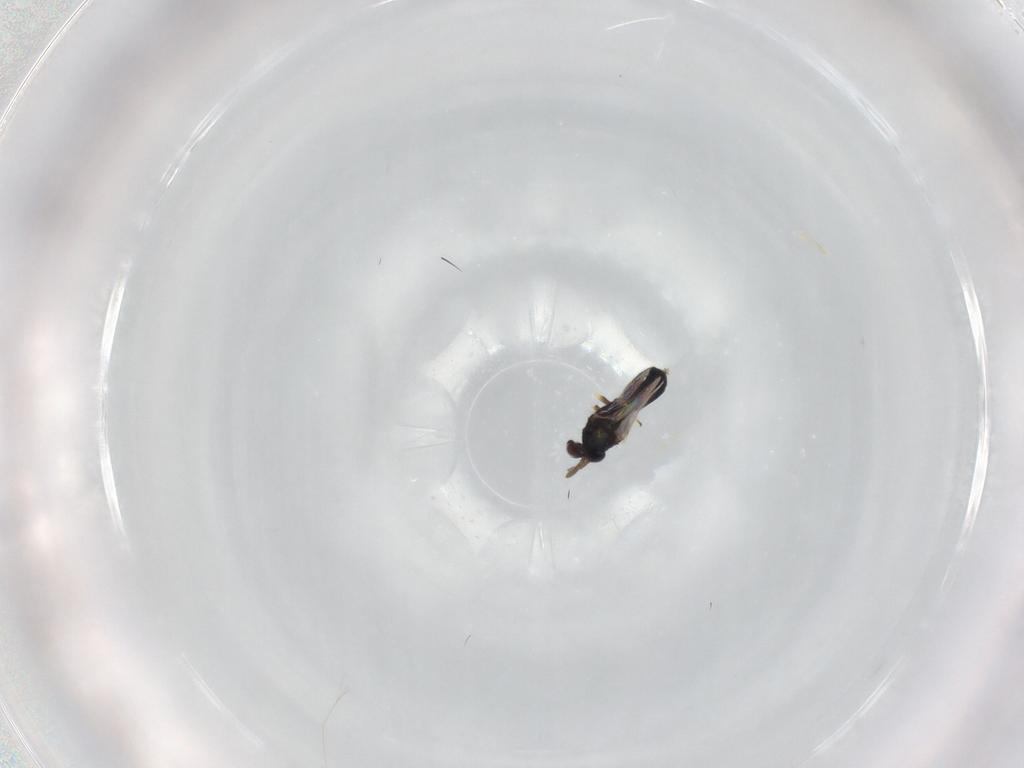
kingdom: Animalia
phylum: Arthropoda
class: Insecta
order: Hymenoptera
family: Eulophidae
